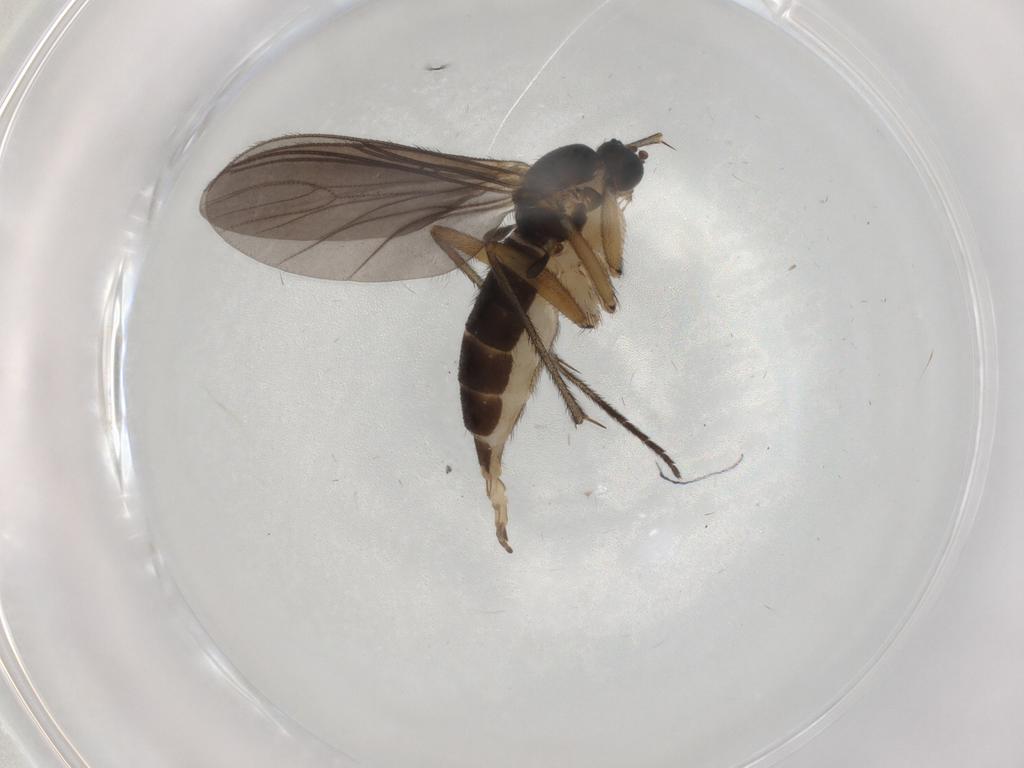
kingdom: Animalia
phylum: Arthropoda
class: Insecta
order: Diptera
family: Sciaridae
